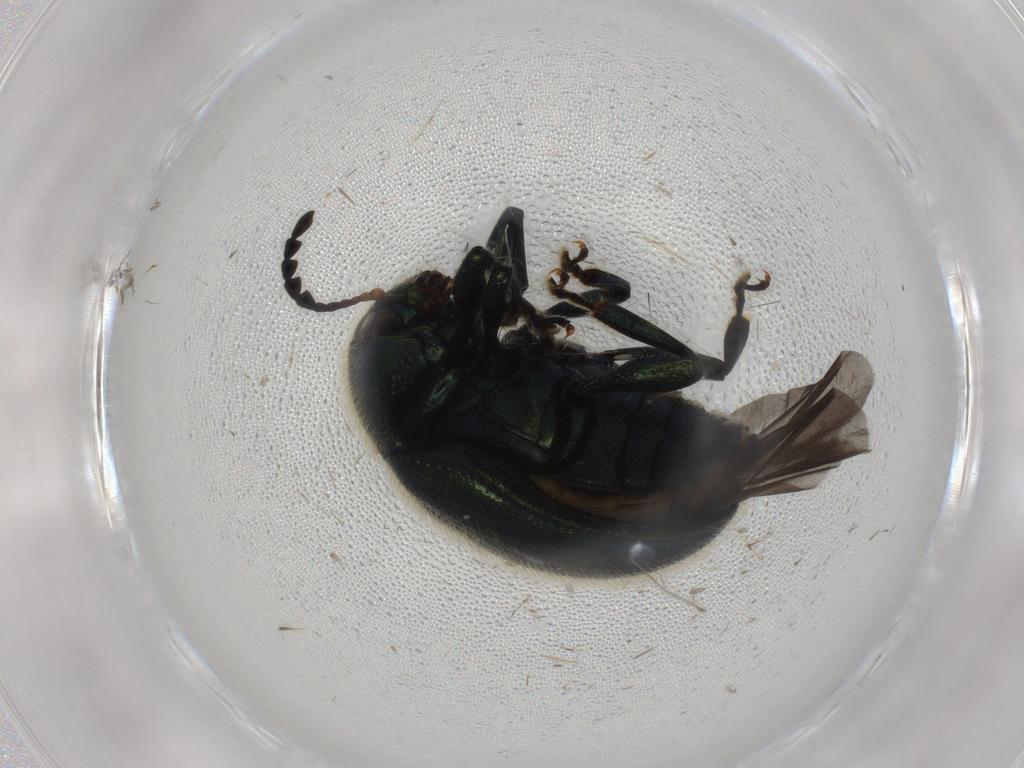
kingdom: Animalia
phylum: Arthropoda
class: Insecta
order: Coleoptera
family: Chrysomelidae
